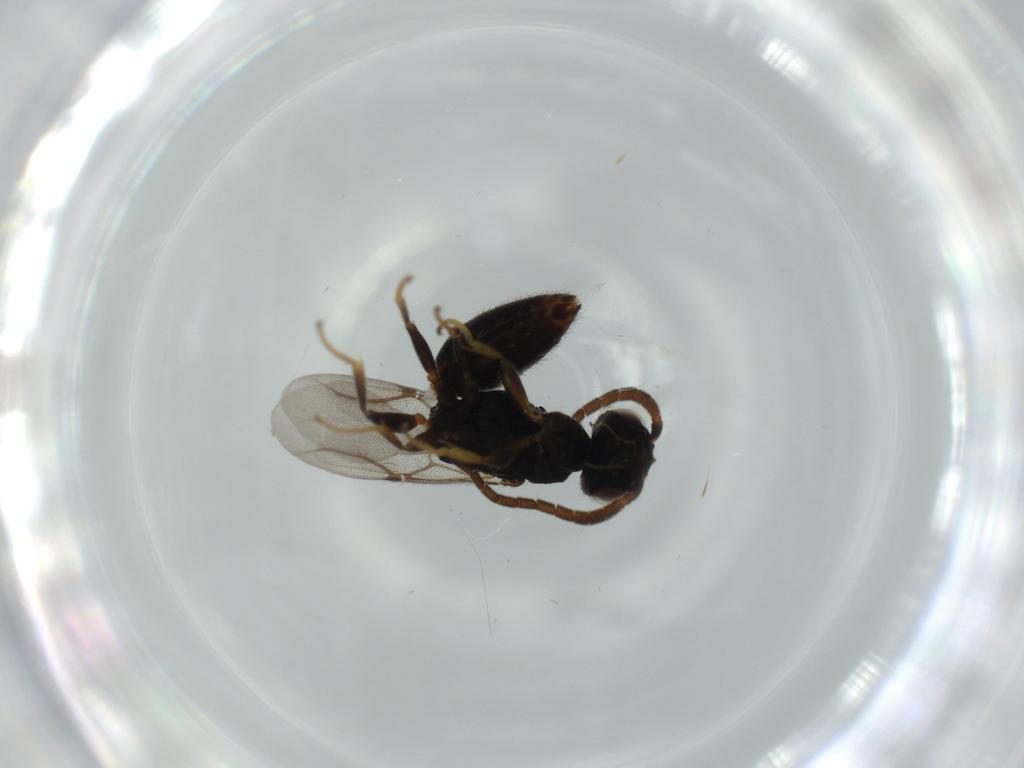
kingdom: Animalia
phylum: Arthropoda
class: Insecta
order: Hymenoptera
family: Bethylidae
